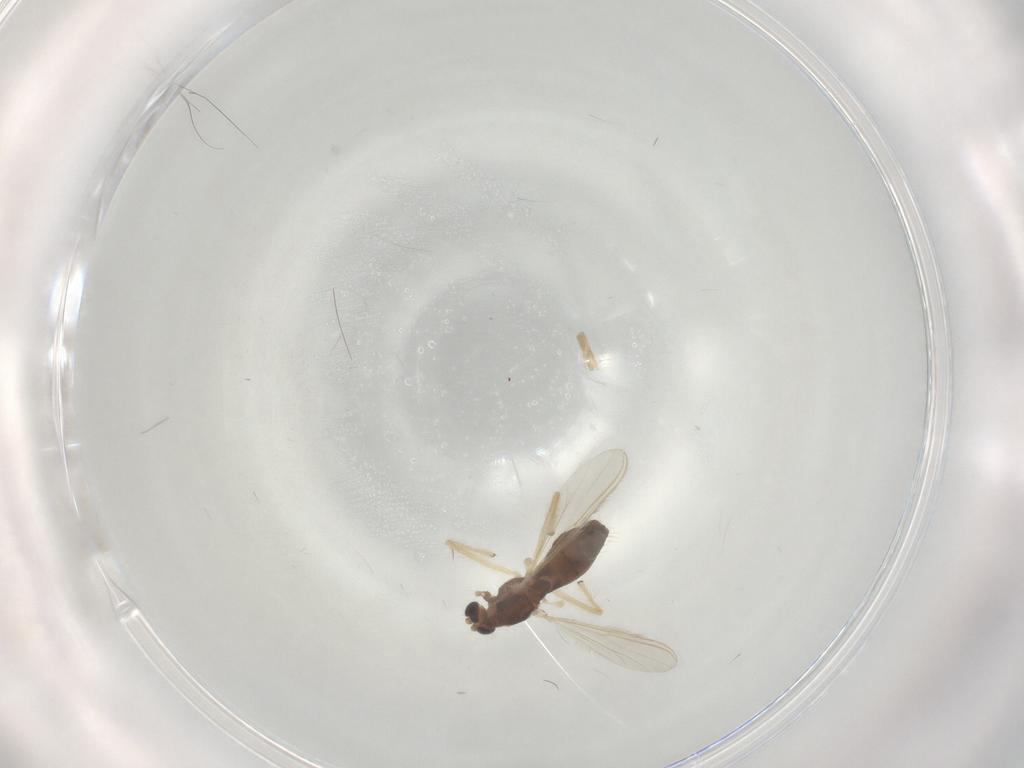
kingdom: Animalia
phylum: Arthropoda
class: Insecta
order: Diptera
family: Chironomidae
